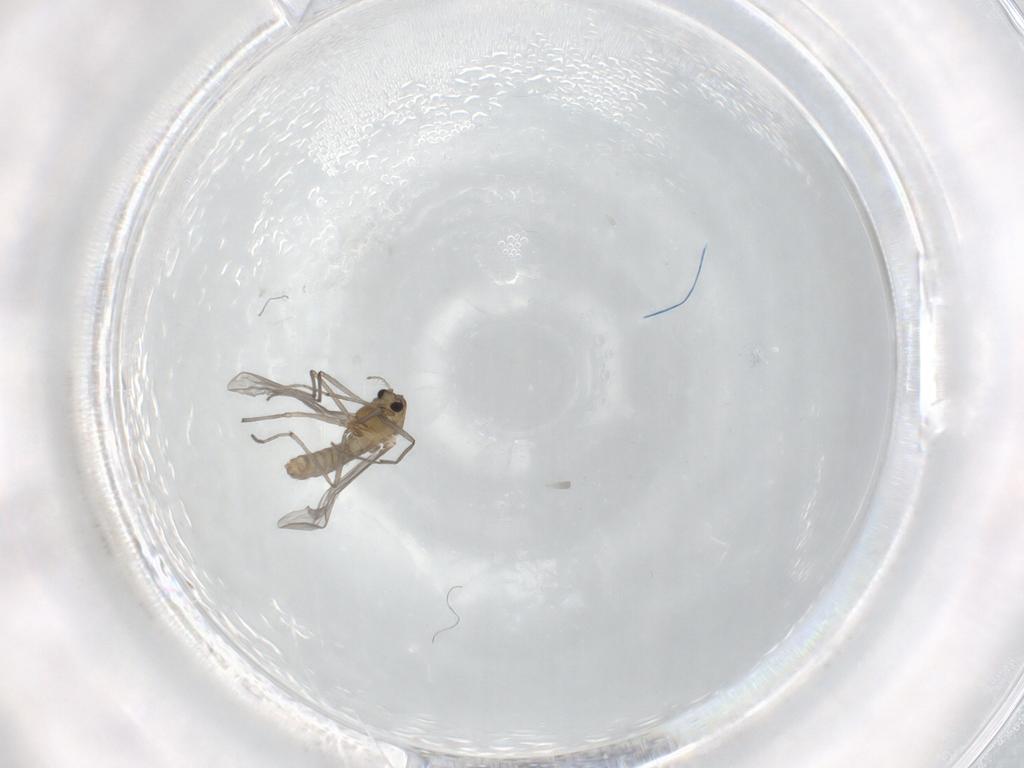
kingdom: Animalia
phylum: Arthropoda
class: Insecta
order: Diptera
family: Chironomidae
